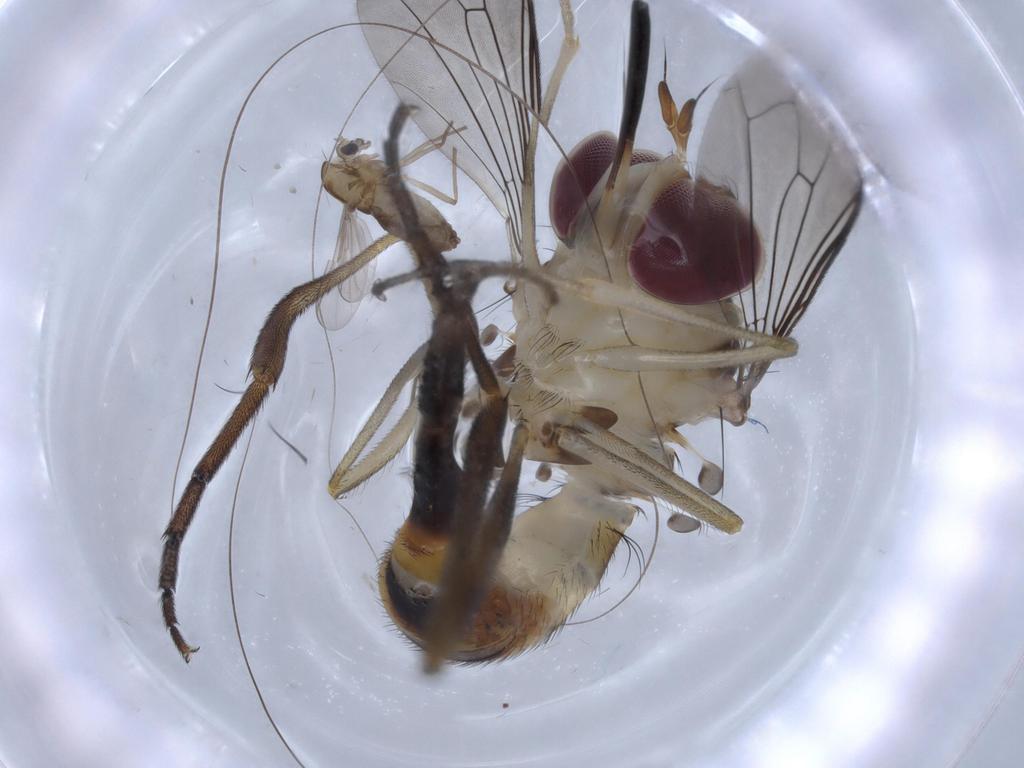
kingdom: Animalia
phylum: Arthropoda
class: Insecta
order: Diptera
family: Conopidae
